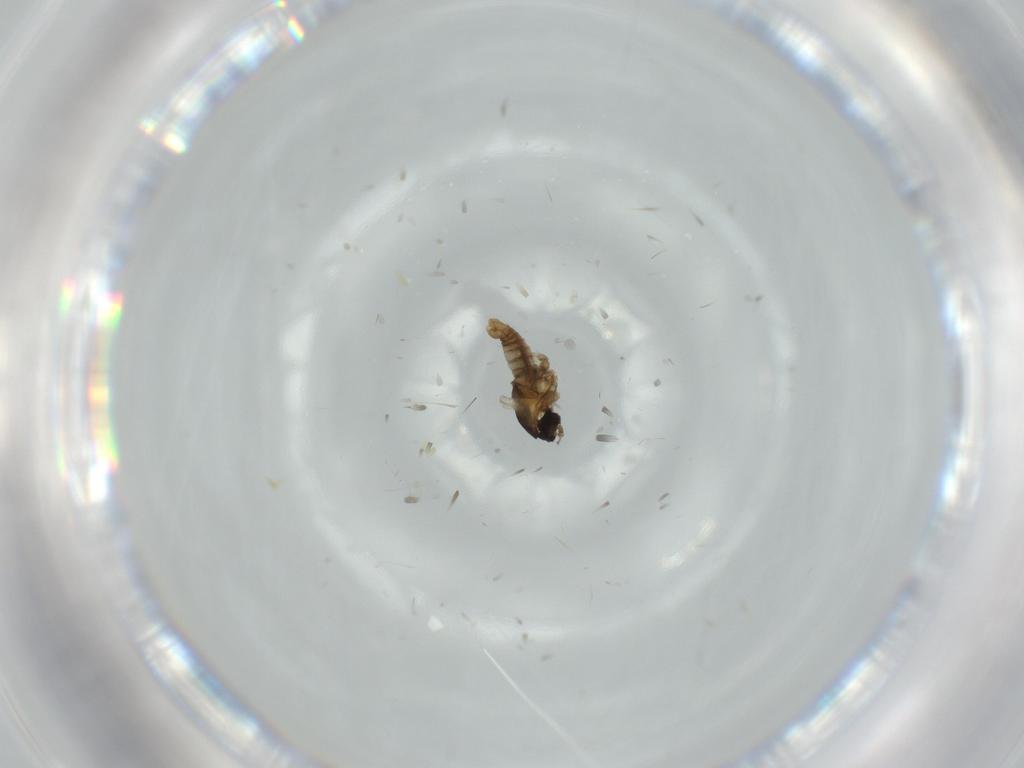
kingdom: Animalia
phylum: Arthropoda
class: Insecta
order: Diptera
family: Cecidomyiidae
